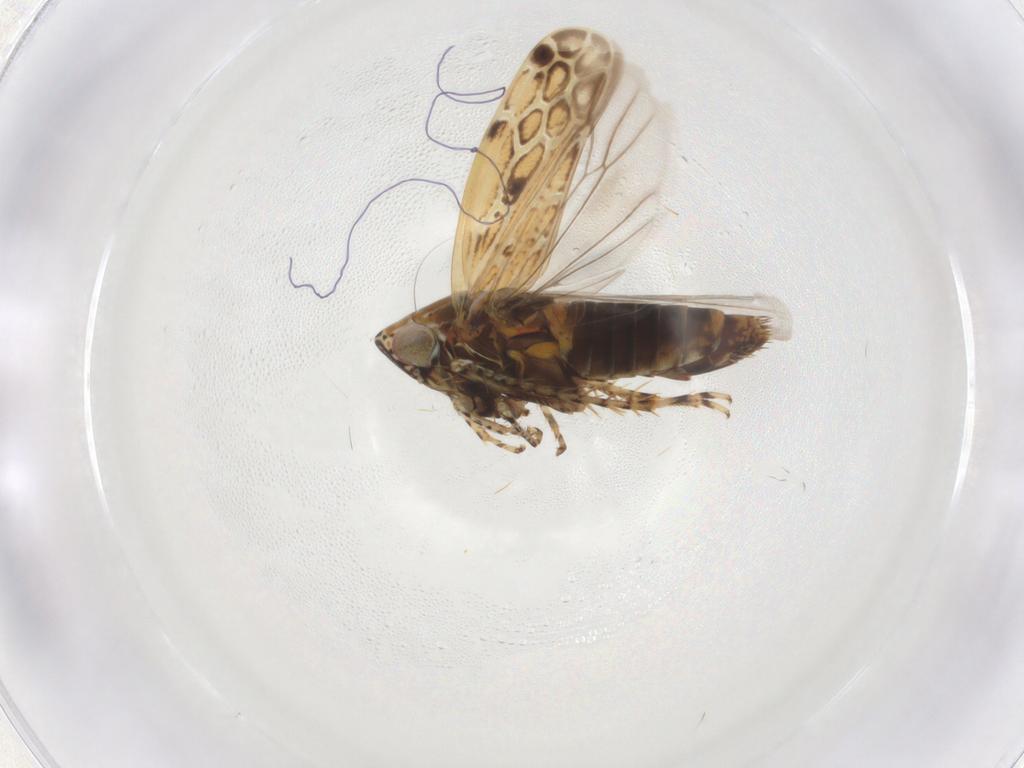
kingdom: Animalia
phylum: Arthropoda
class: Insecta
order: Hemiptera
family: Cicadellidae
